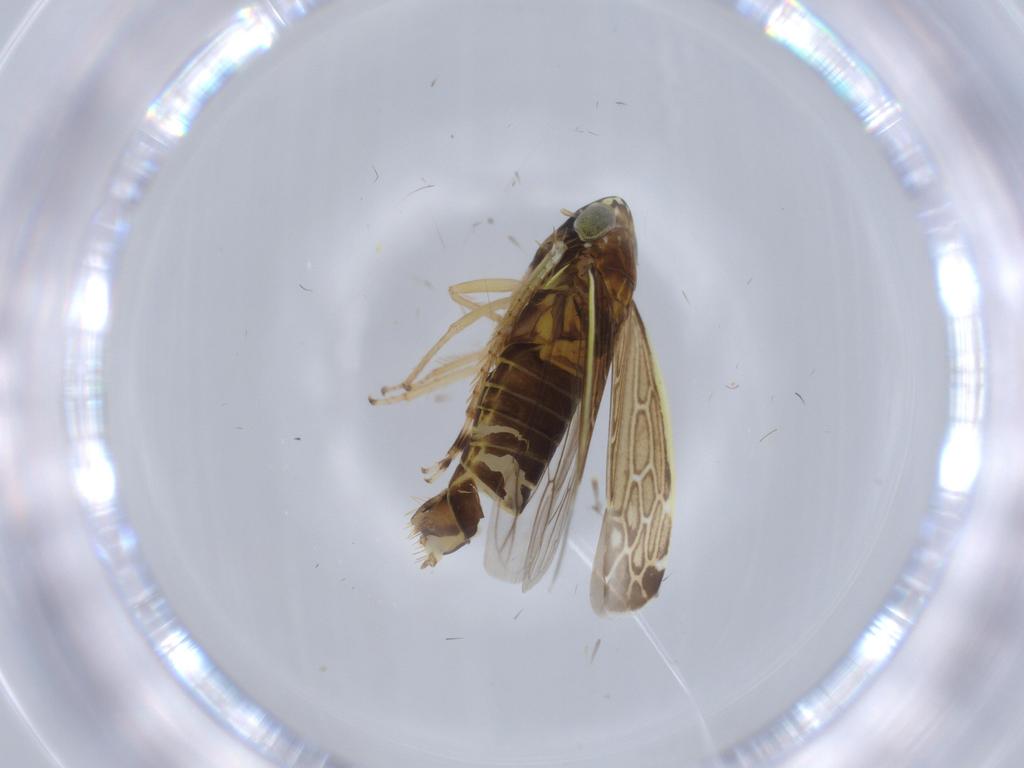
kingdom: Animalia
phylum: Arthropoda
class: Insecta
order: Hemiptera
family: Cicadellidae
